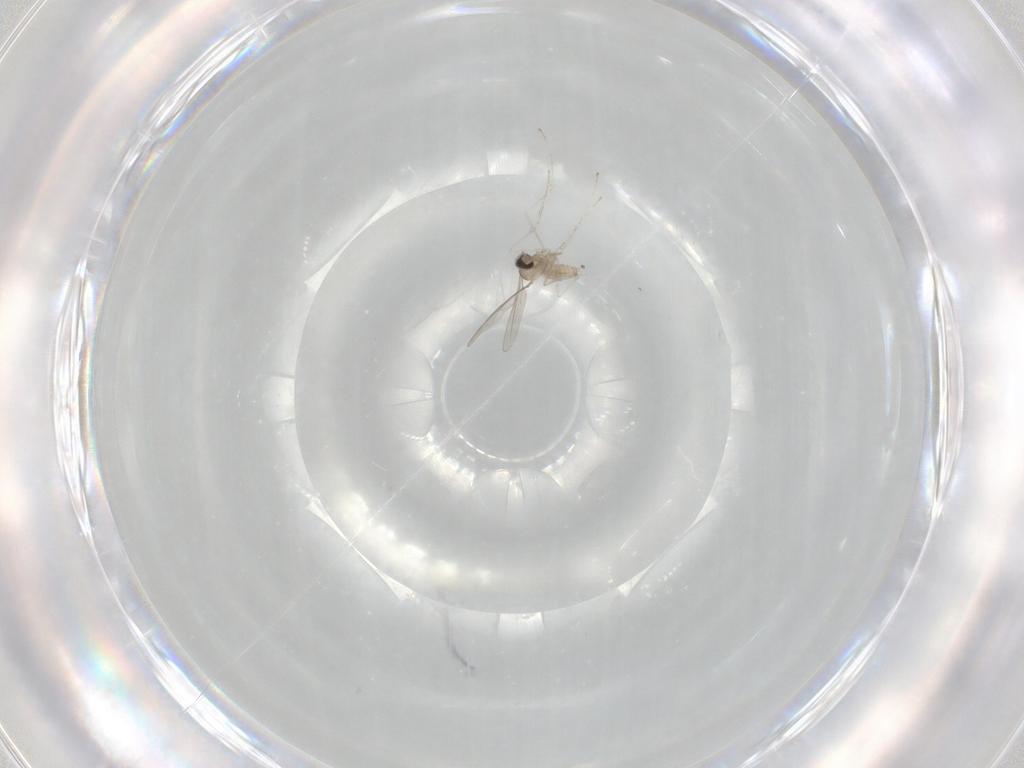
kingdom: Animalia
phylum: Arthropoda
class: Insecta
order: Diptera
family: Cecidomyiidae
